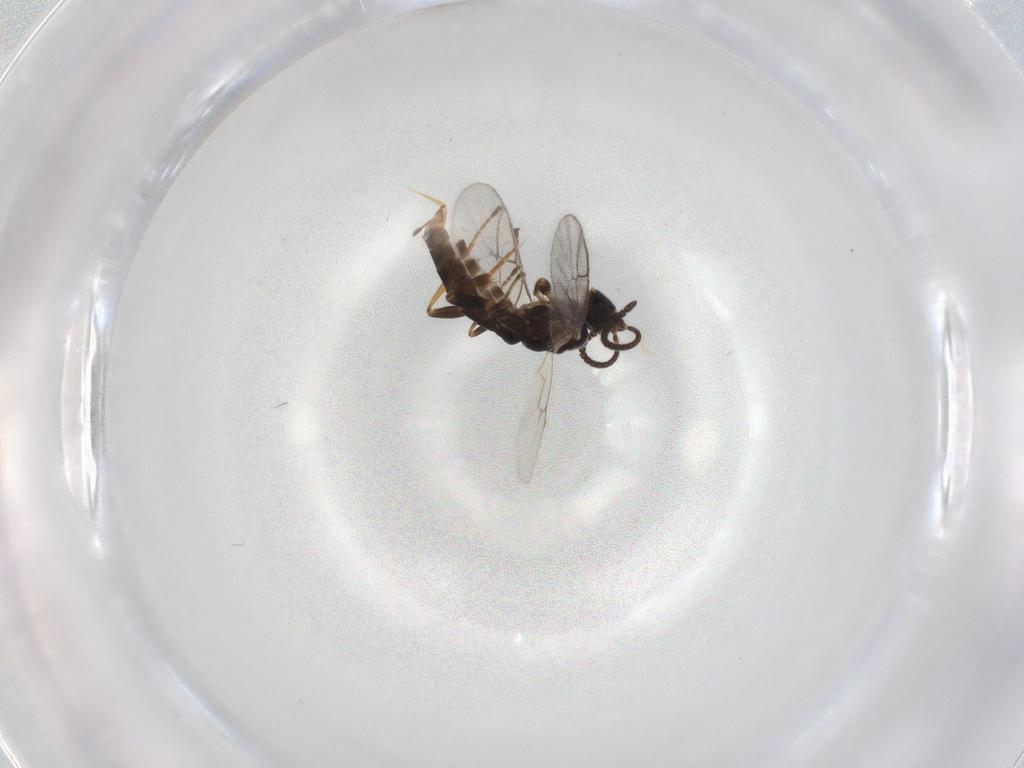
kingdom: Animalia
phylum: Arthropoda
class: Insecta
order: Hymenoptera
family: Ichneumonidae
